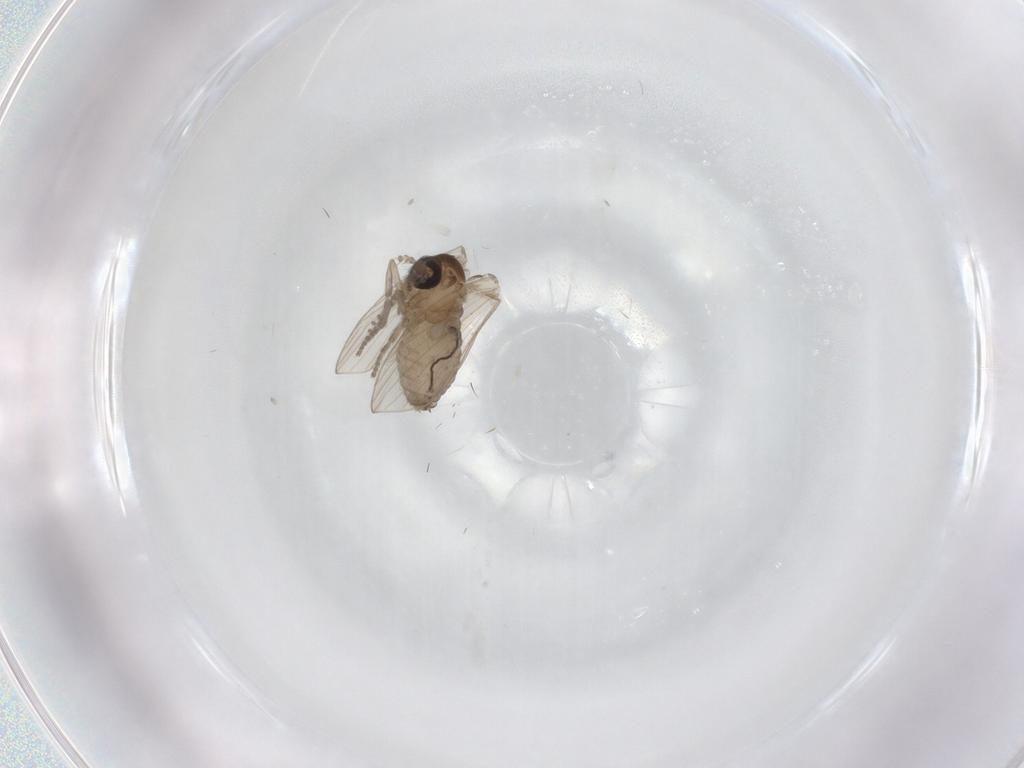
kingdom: Animalia
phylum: Arthropoda
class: Insecta
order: Diptera
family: Psychodidae
